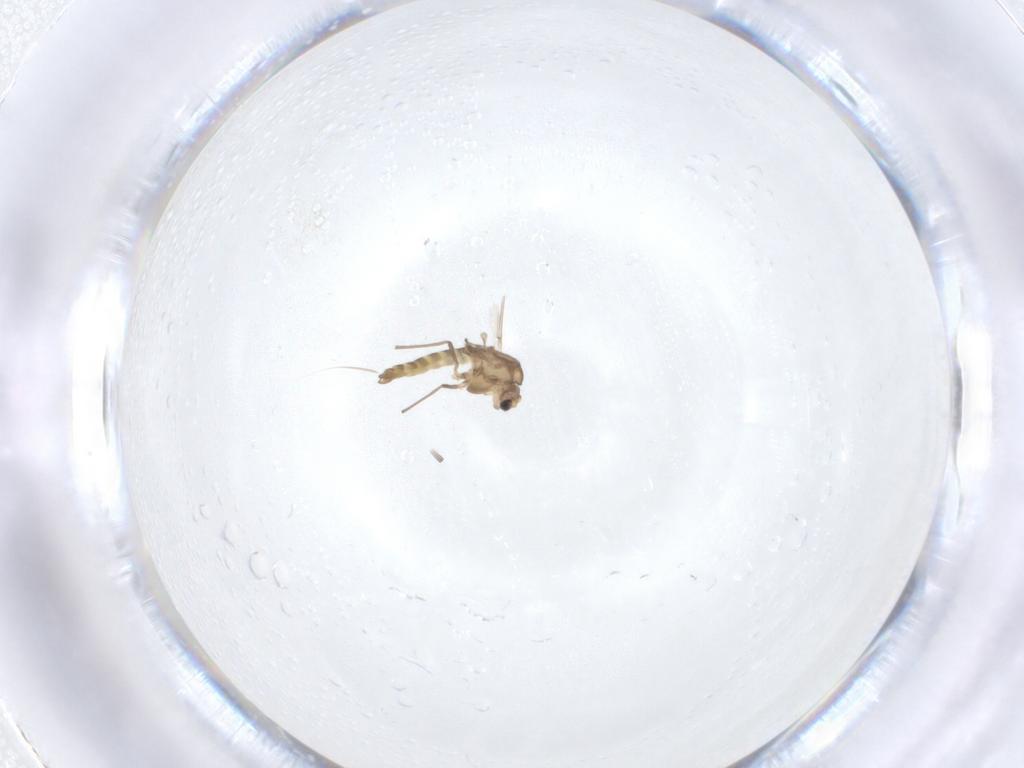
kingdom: Animalia
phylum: Arthropoda
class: Insecta
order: Diptera
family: Chironomidae
